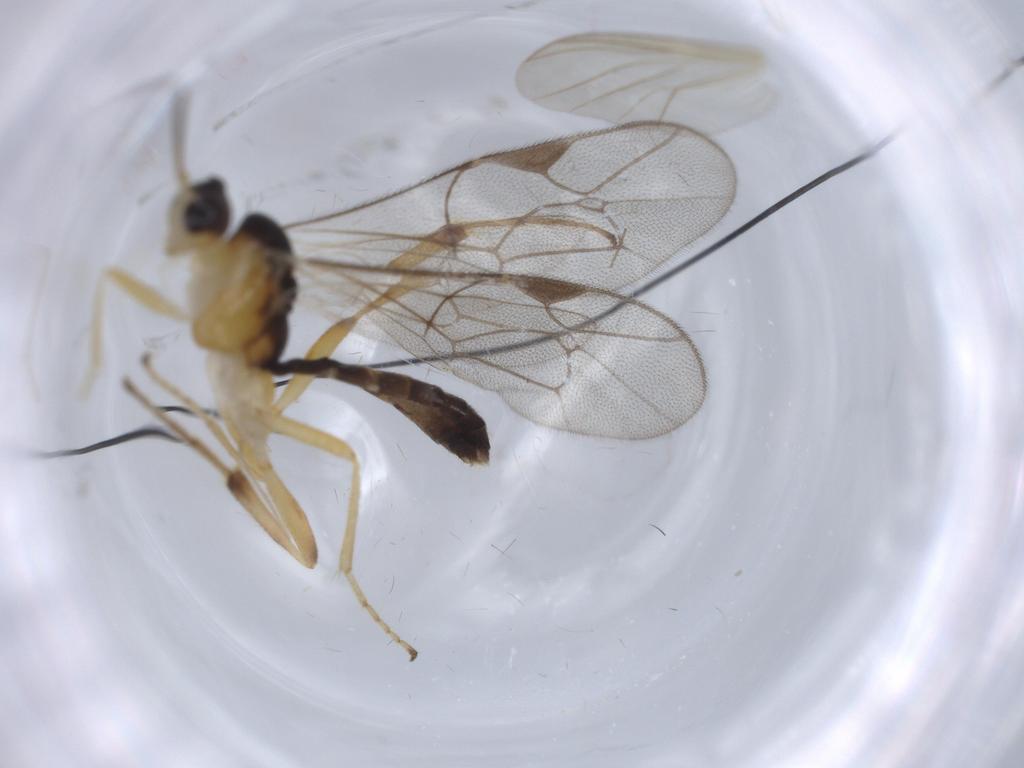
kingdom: Animalia
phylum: Arthropoda
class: Insecta
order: Hymenoptera
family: Ichneumonidae
